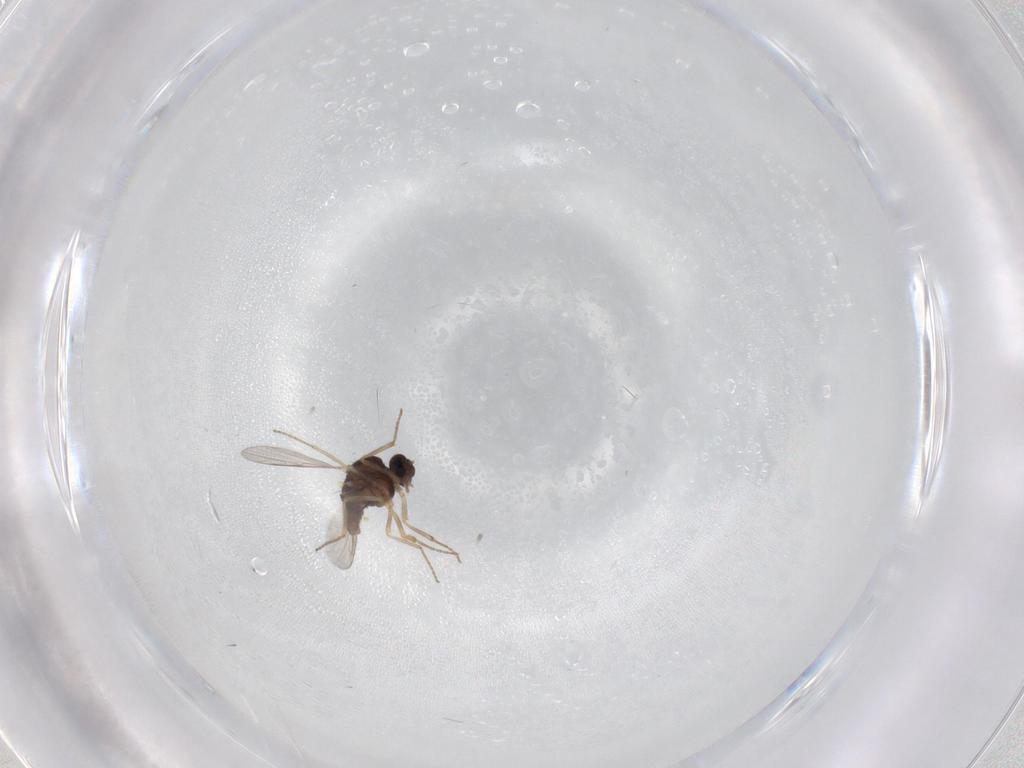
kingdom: Animalia
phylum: Arthropoda
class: Insecta
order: Diptera
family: Ceratopogonidae
